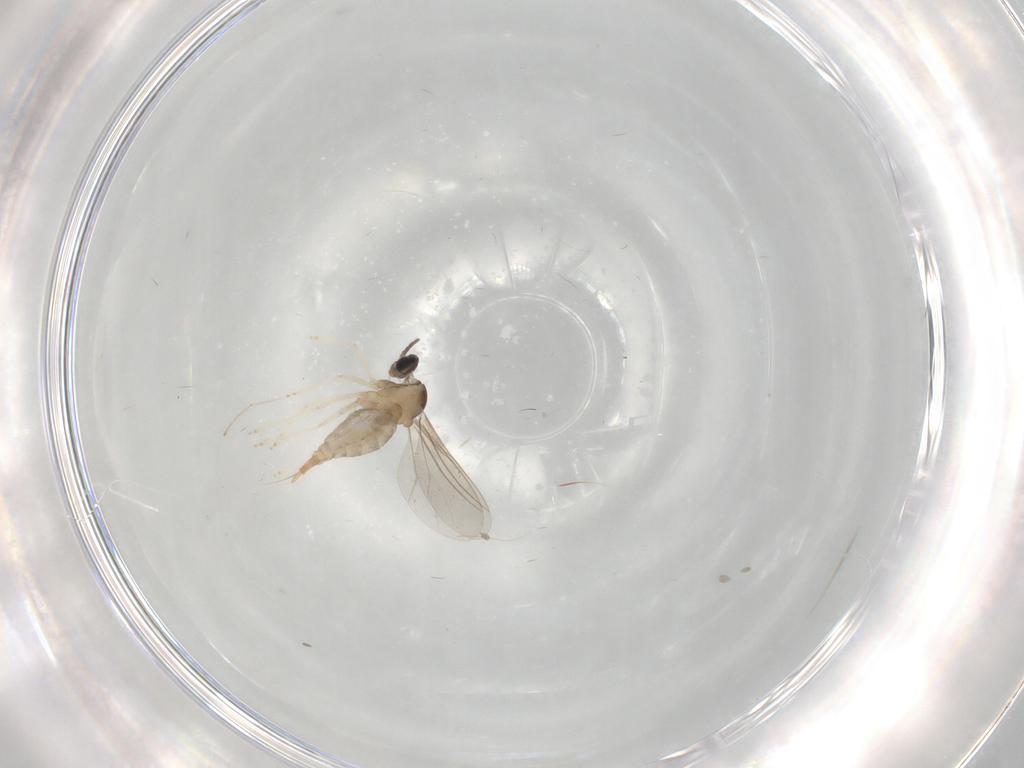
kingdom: Animalia
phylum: Arthropoda
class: Insecta
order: Diptera
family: Cecidomyiidae
